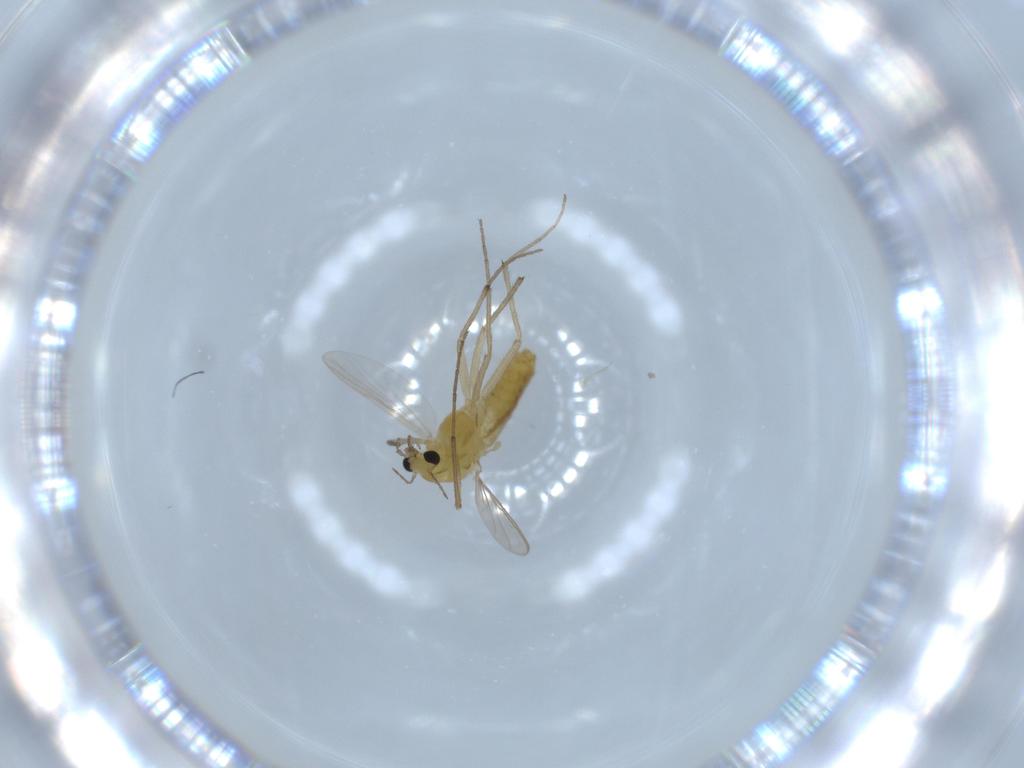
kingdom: Animalia
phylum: Arthropoda
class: Insecta
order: Diptera
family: Chironomidae
